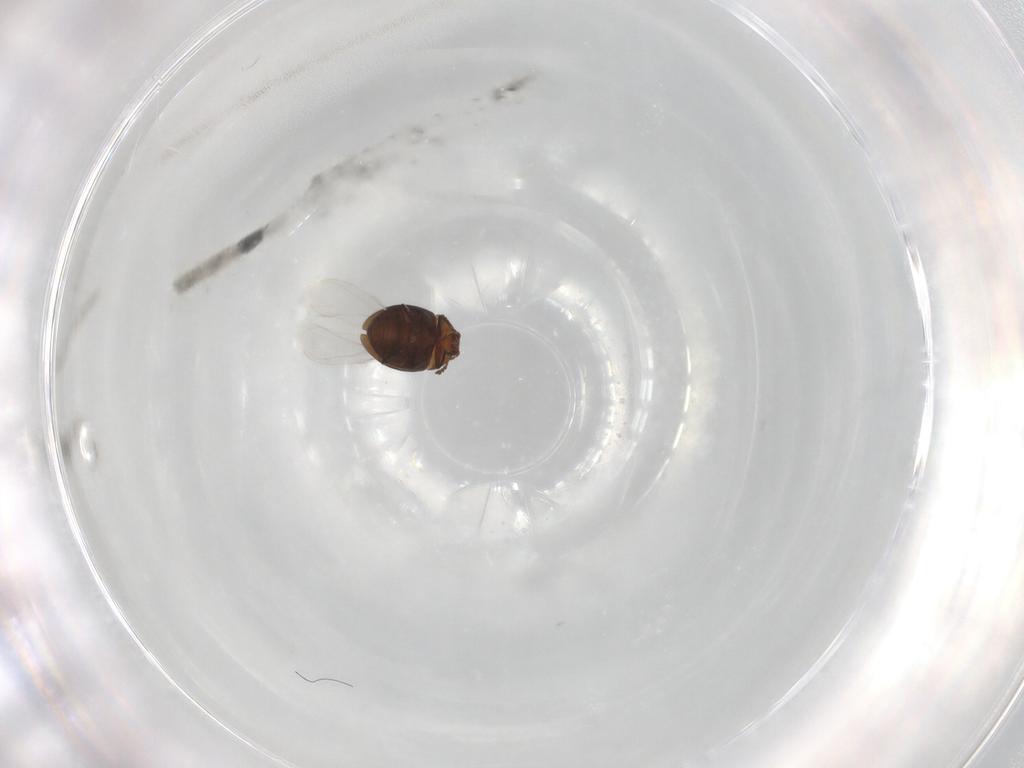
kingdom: Animalia
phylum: Arthropoda
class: Insecta
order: Coleoptera
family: Corylophidae
